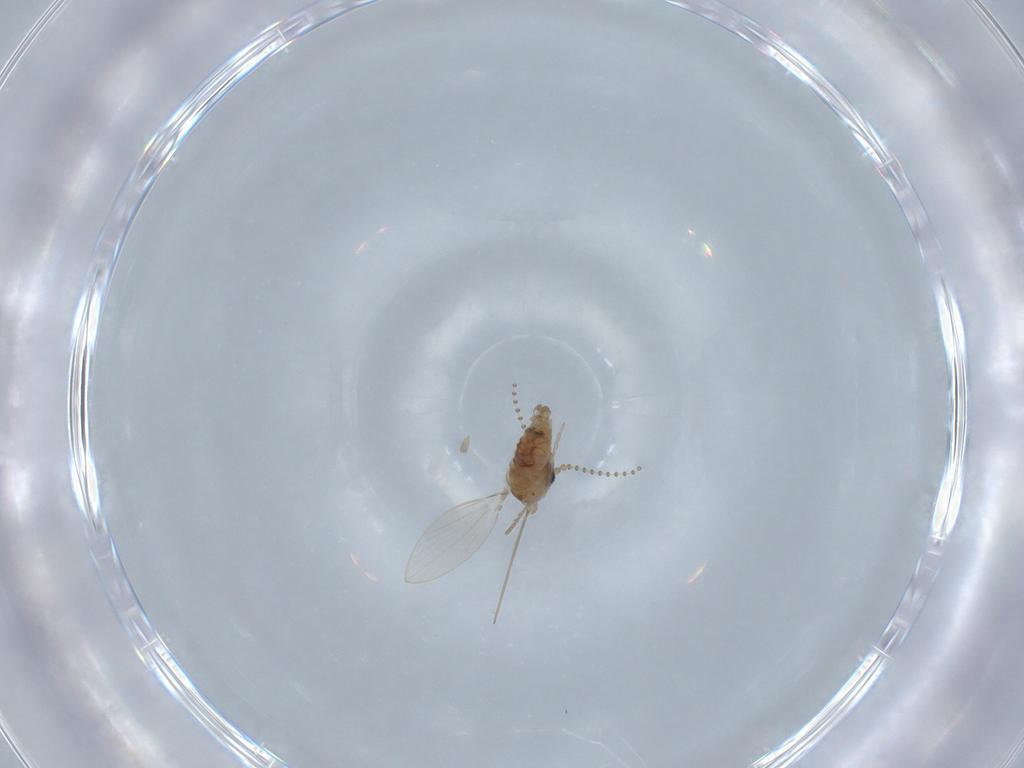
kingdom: Animalia
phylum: Arthropoda
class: Insecta
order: Diptera
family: Psychodidae
